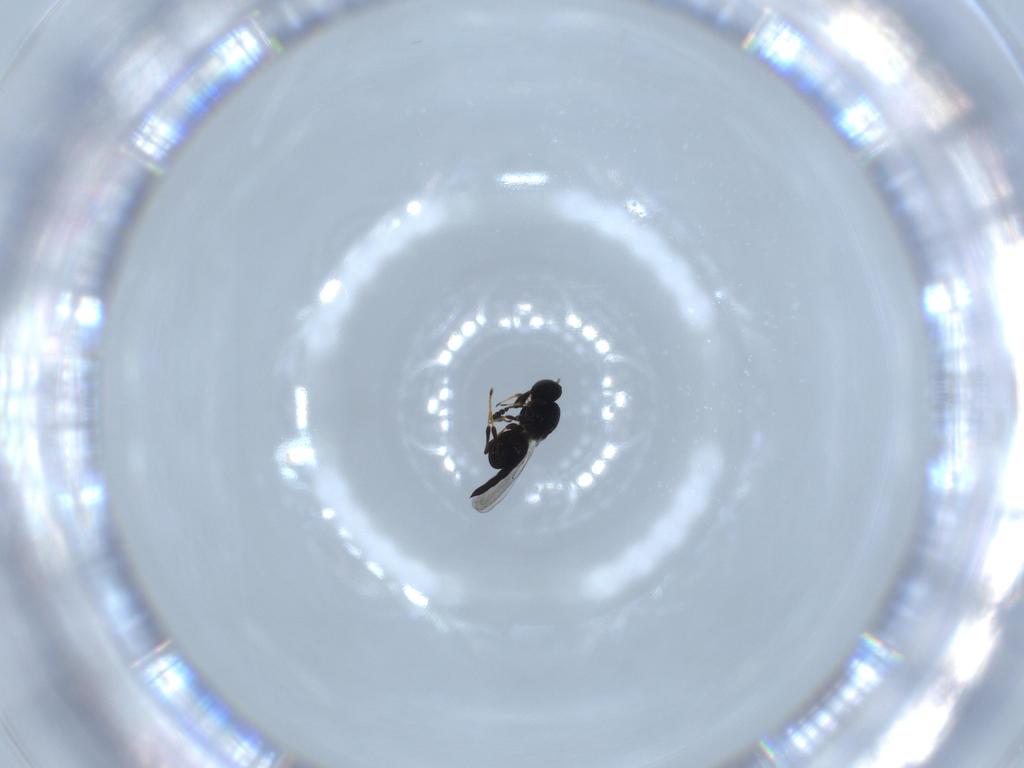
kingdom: Animalia
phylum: Arthropoda
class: Insecta
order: Hymenoptera
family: Platygastridae
